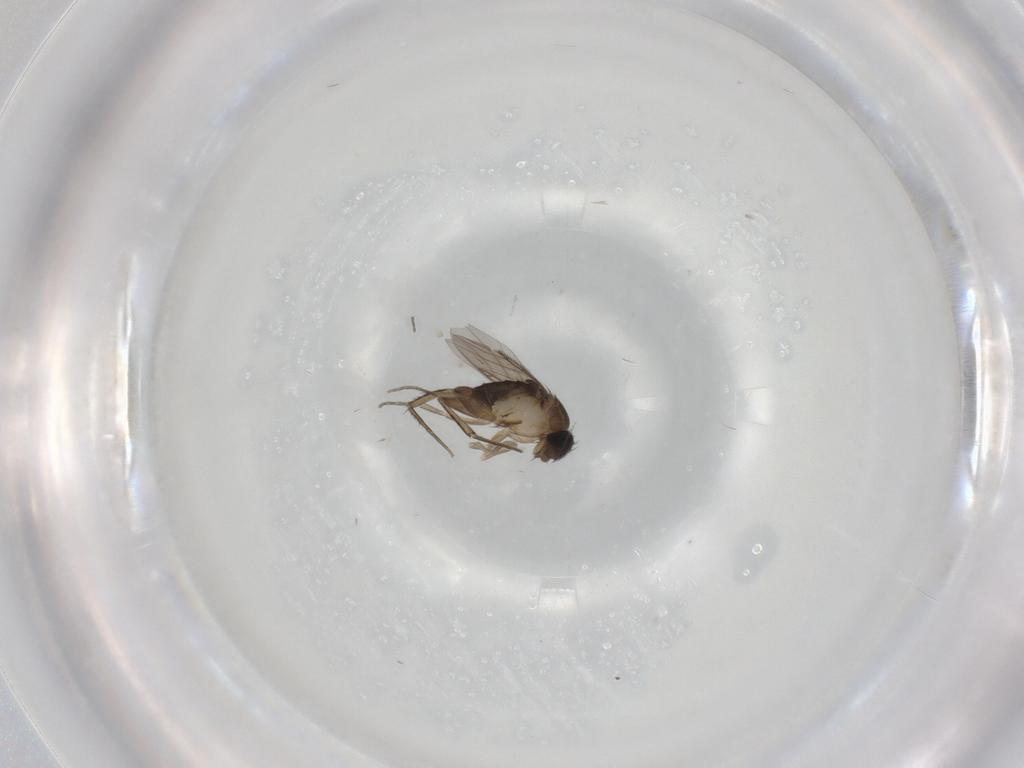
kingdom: Animalia
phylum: Arthropoda
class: Insecta
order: Diptera
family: Phoridae
